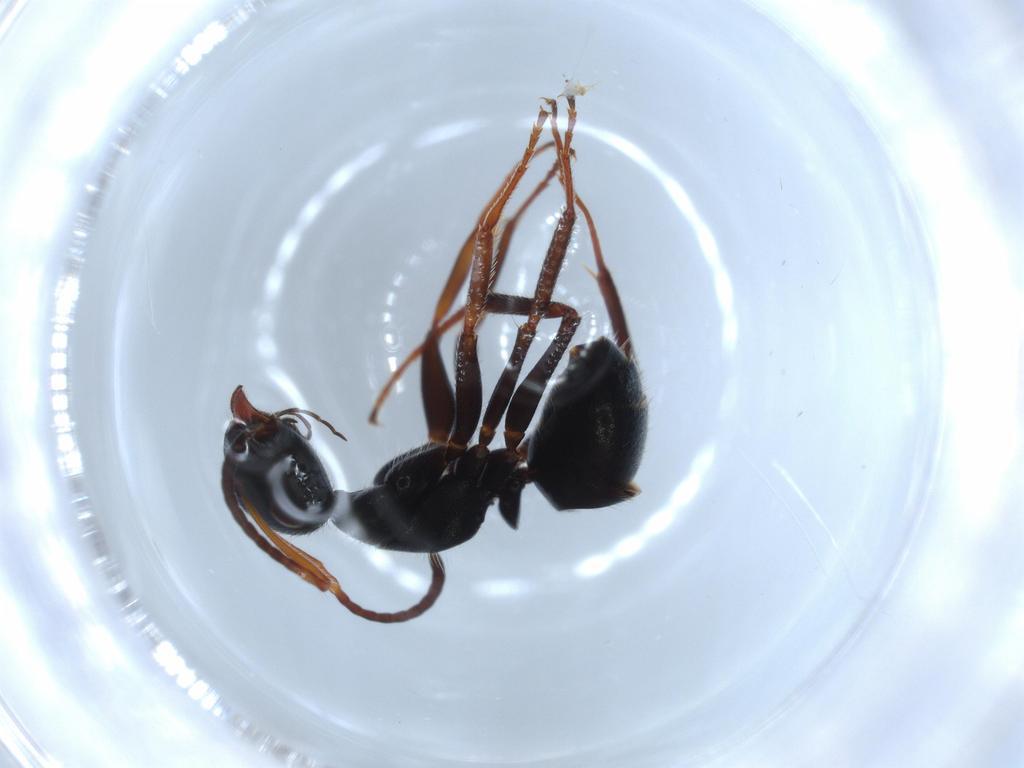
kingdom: Animalia
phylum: Arthropoda
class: Insecta
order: Hymenoptera
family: Formicidae
